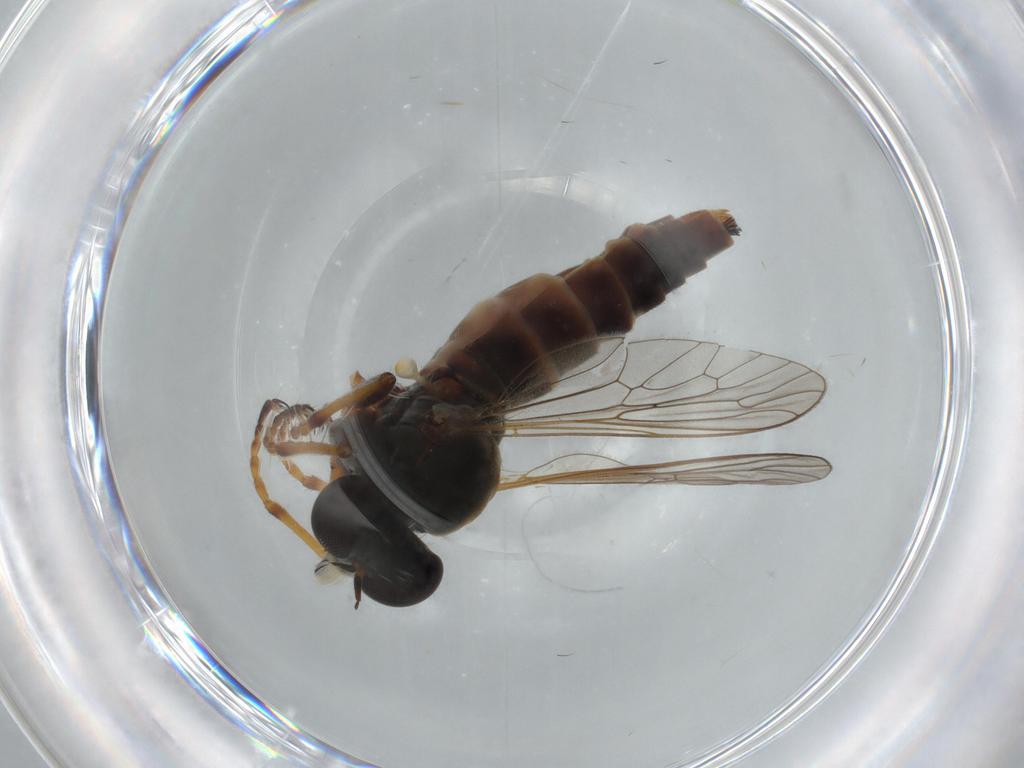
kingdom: Animalia
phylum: Arthropoda
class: Insecta
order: Diptera
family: Asilidae
